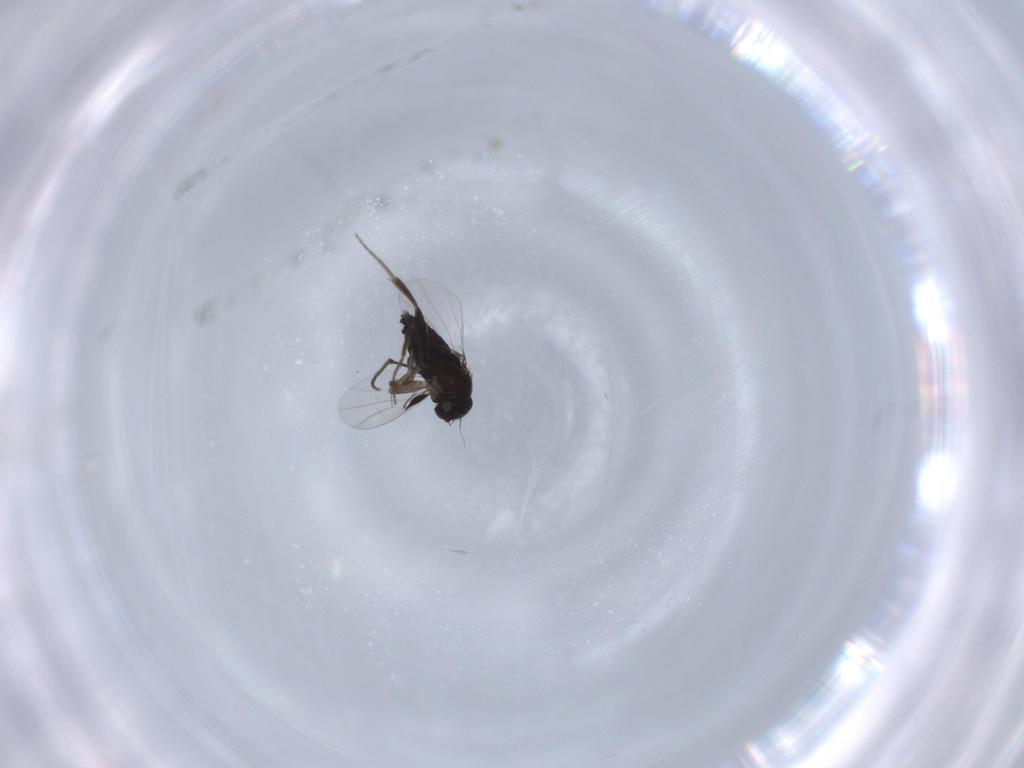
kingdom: Animalia
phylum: Arthropoda
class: Insecta
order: Diptera
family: Phoridae
